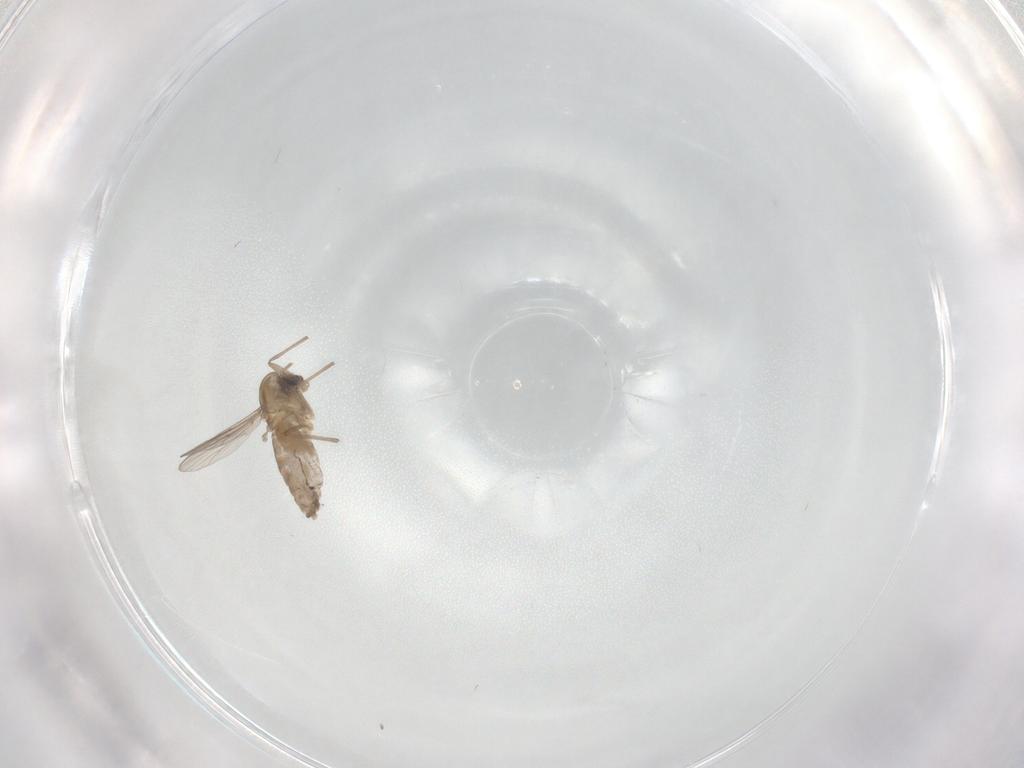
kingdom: Animalia
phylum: Arthropoda
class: Insecta
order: Diptera
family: Chironomidae
